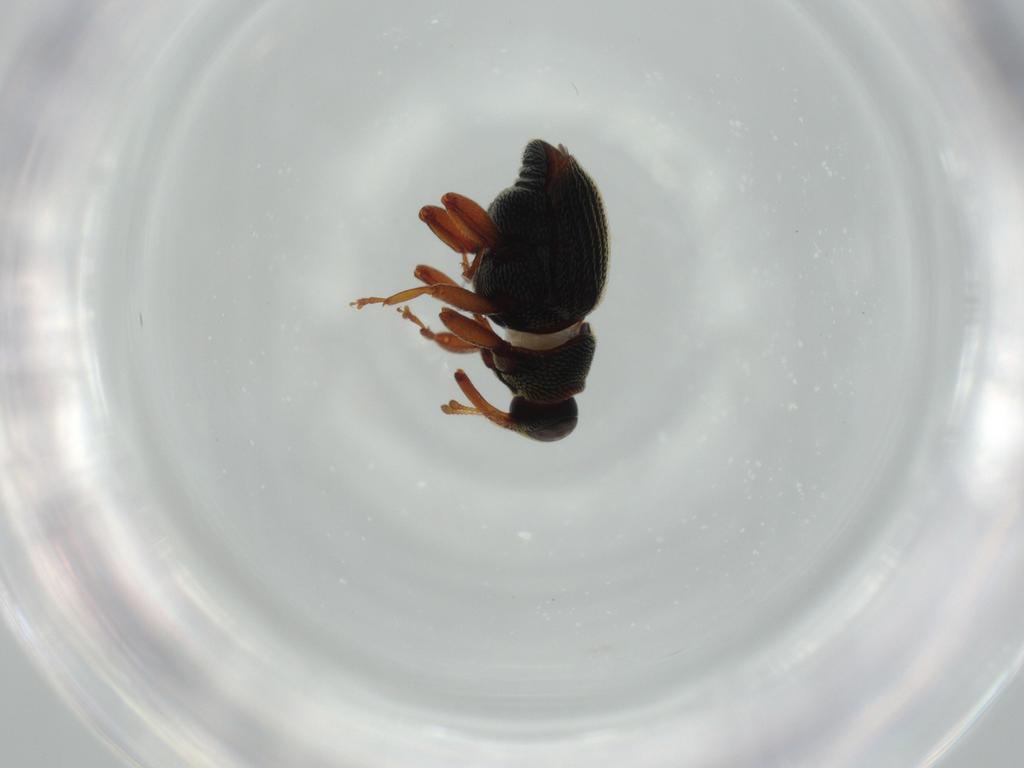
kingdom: Animalia
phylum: Arthropoda
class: Insecta
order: Coleoptera
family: Curculionidae
